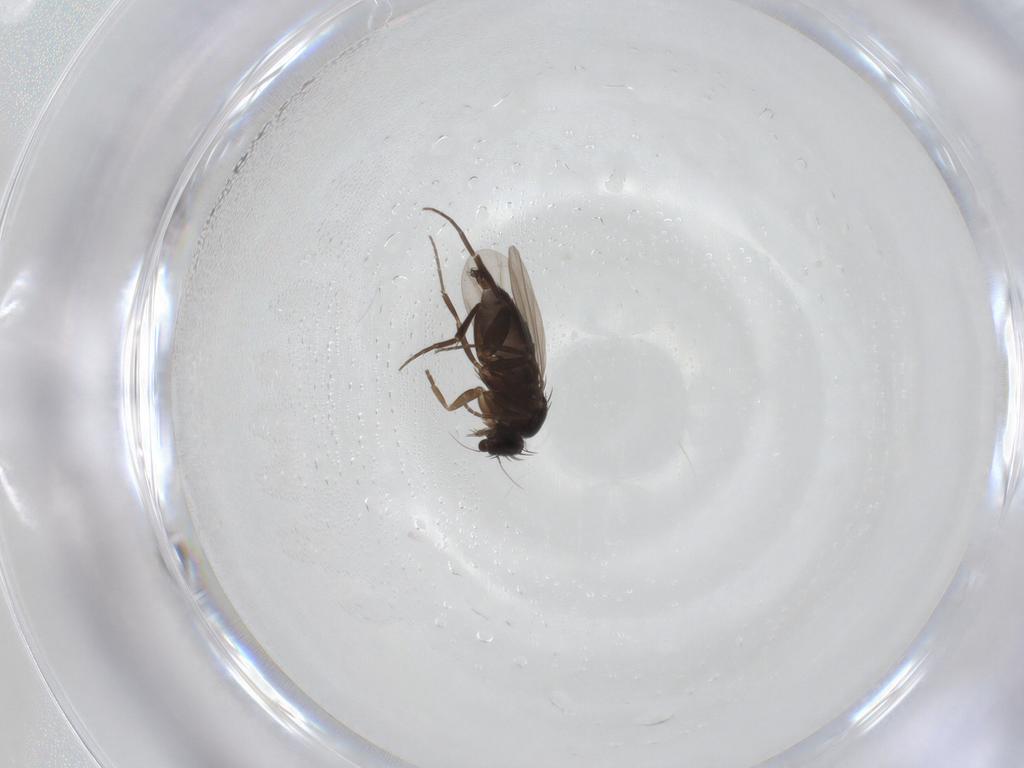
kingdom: Animalia
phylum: Arthropoda
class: Insecta
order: Diptera
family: Phoridae
